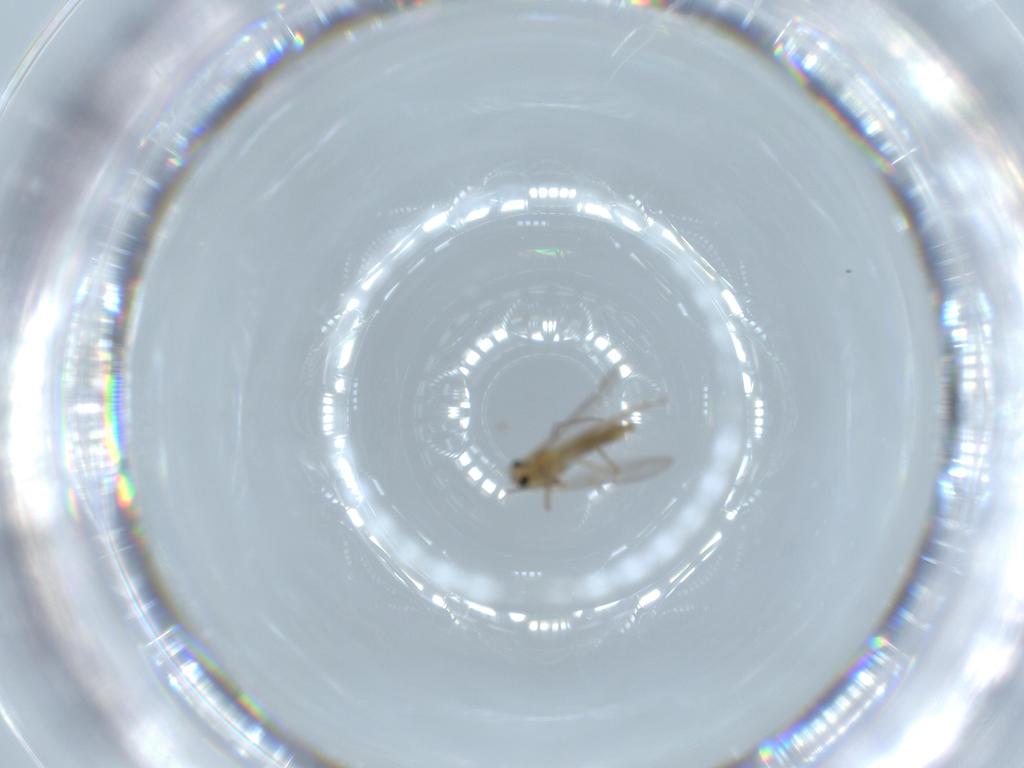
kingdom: Animalia
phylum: Arthropoda
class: Insecta
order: Diptera
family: Chironomidae
